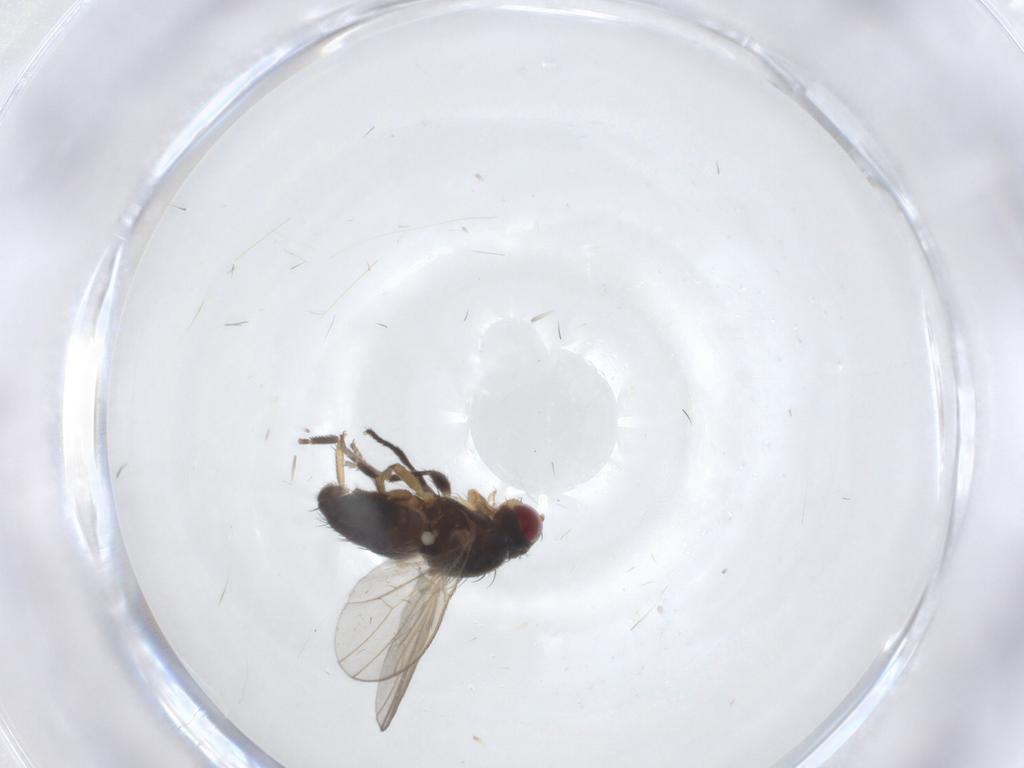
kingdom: Animalia
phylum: Arthropoda
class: Insecta
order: Diptera
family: Heleomyzidae
